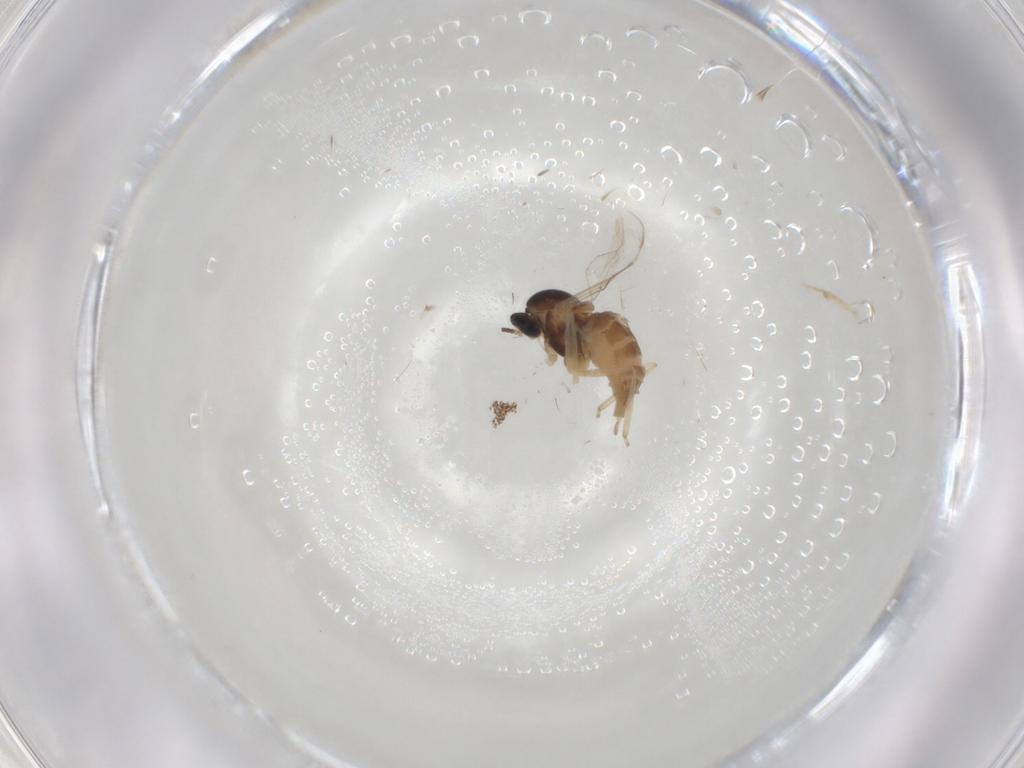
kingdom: Animalia
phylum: Arthropoda
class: Insecta
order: Diptera
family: Cecidomyiidae
